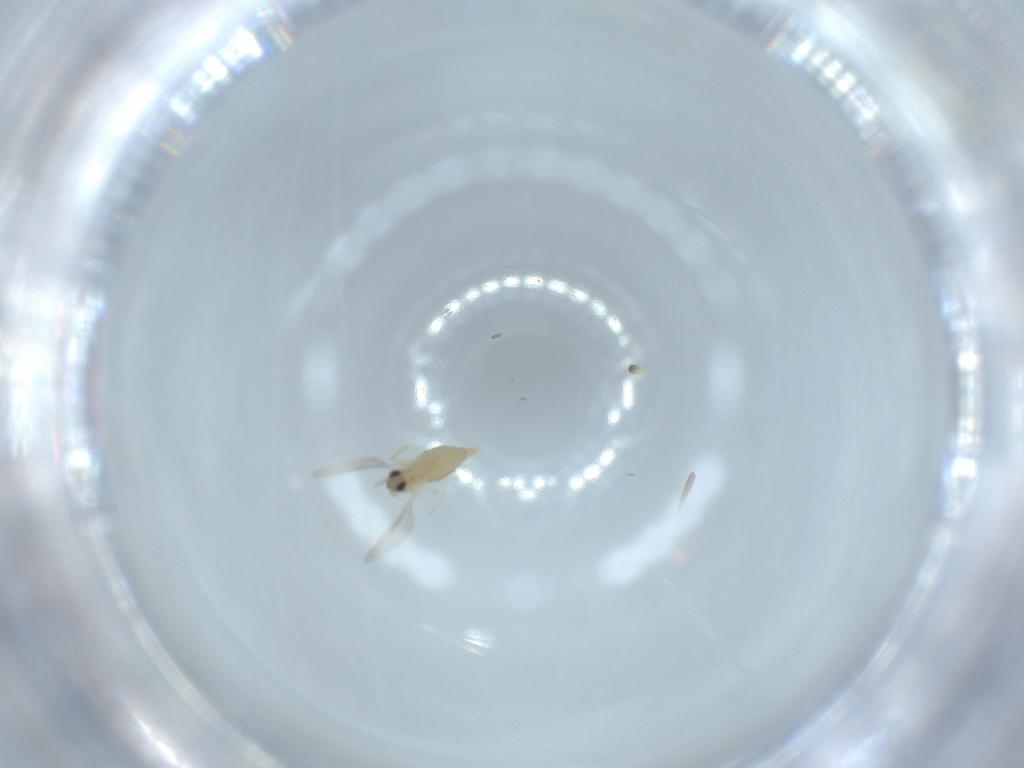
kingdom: Animalia
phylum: Arthropoda
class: Insecta
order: Diptera
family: Cecidomyiidae
